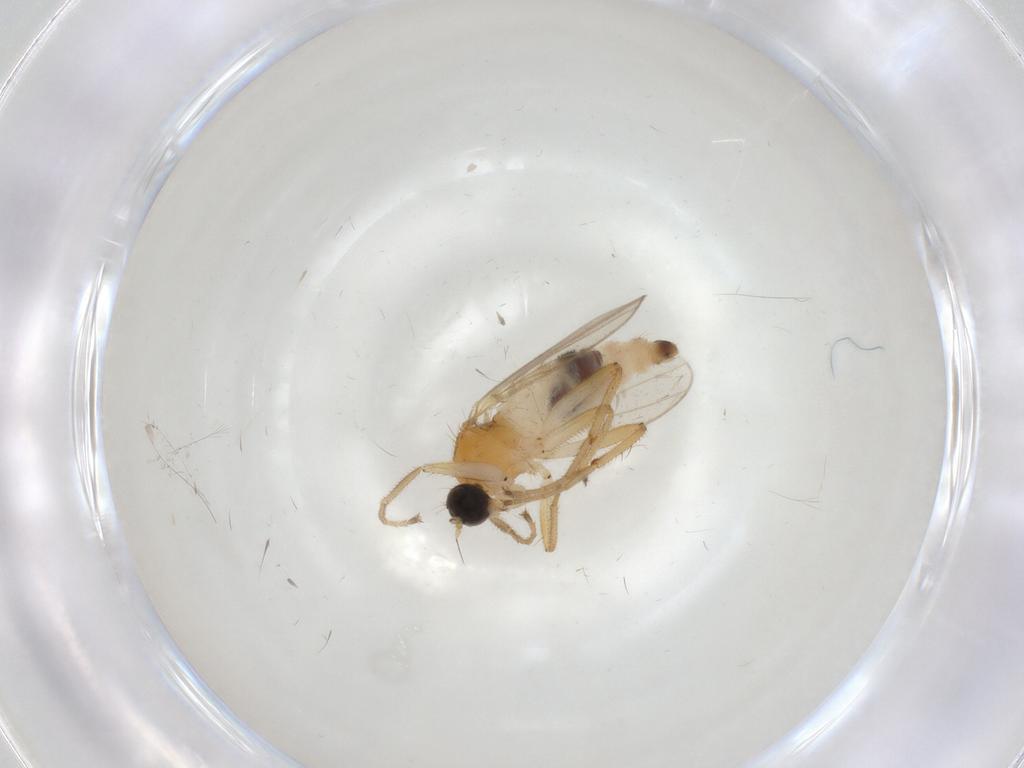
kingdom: Animalia
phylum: Arthropoda
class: Insecta
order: Diptera
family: Hybotidae
